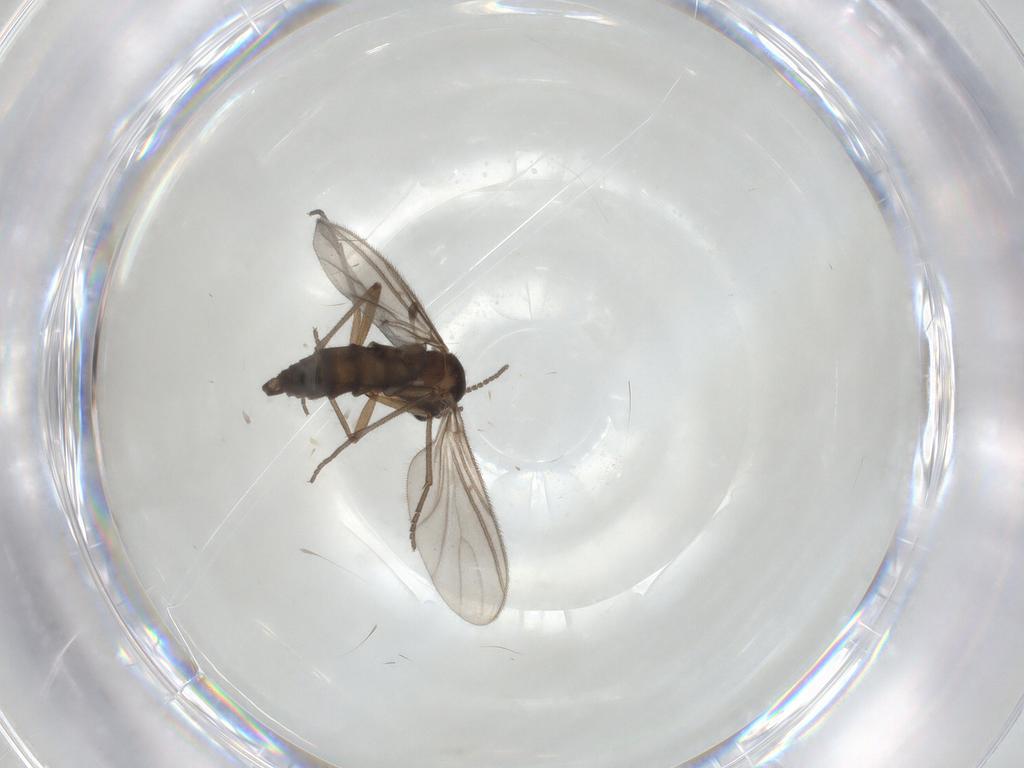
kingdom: Animalia
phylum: Arthropoda
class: Insecta
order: Diptera
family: Sciaridae
